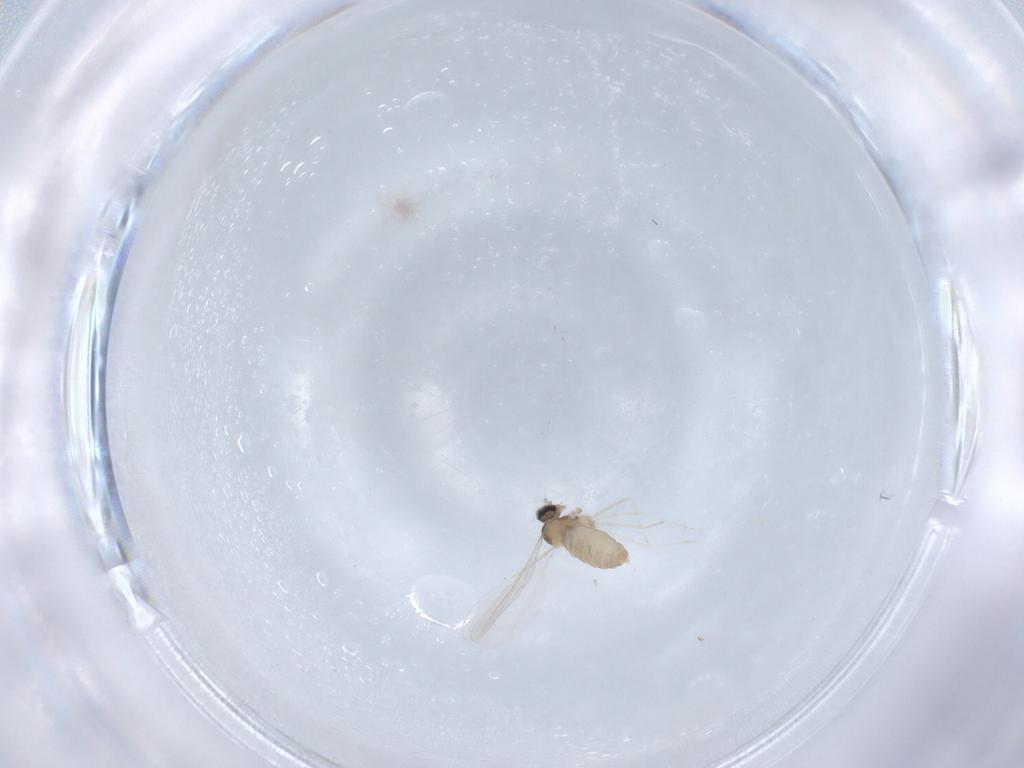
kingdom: Animalia
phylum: Arthropoda
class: Insecta
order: Diptera
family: Cecidomyiidae
